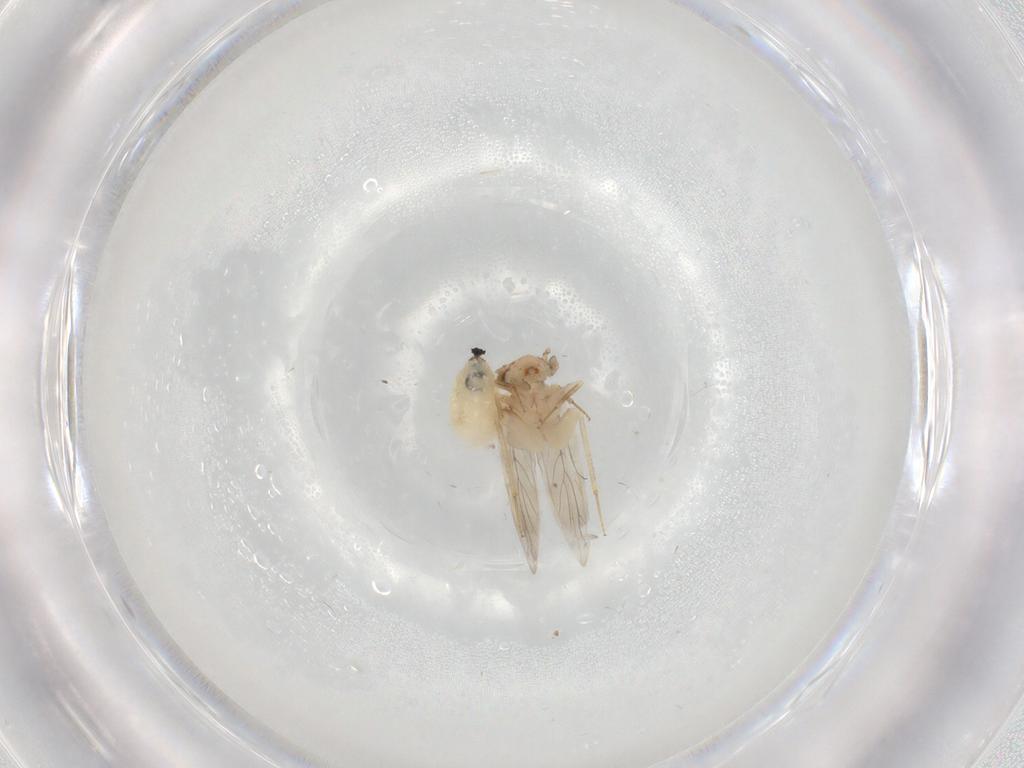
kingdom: Animalia
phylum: Arthropoda
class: Insecta
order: Psocodea
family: Lepidopsocidae
